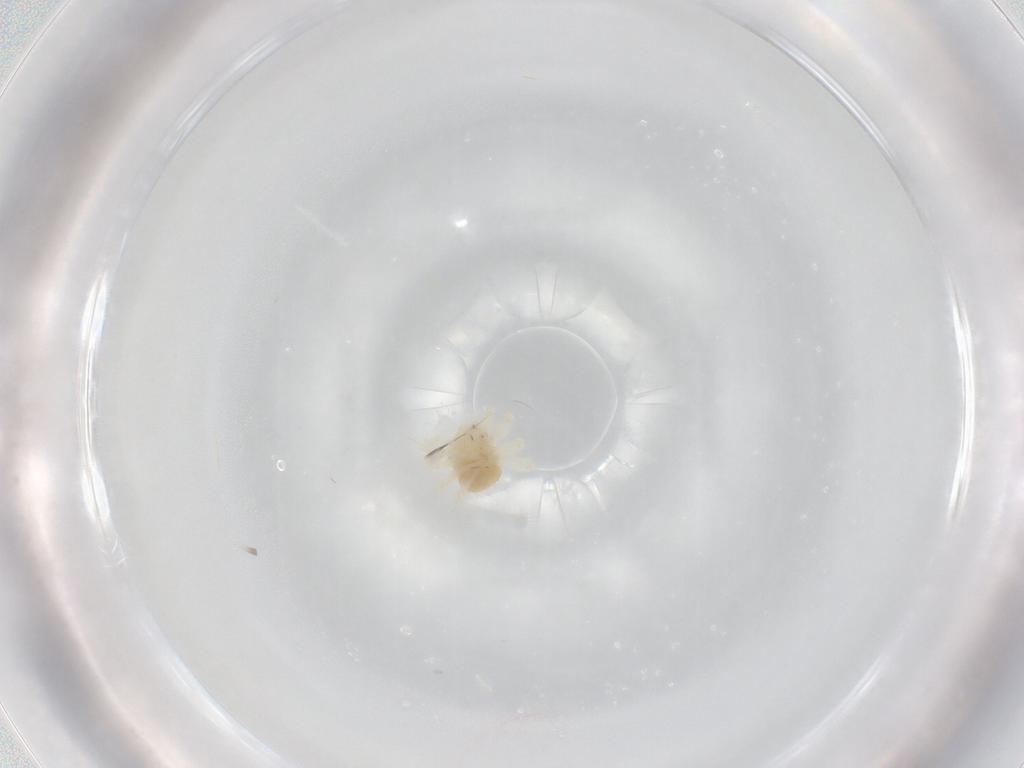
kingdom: Animalia
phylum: Arthropoda
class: Arachnida
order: Trombidiformes
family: Anystidae
